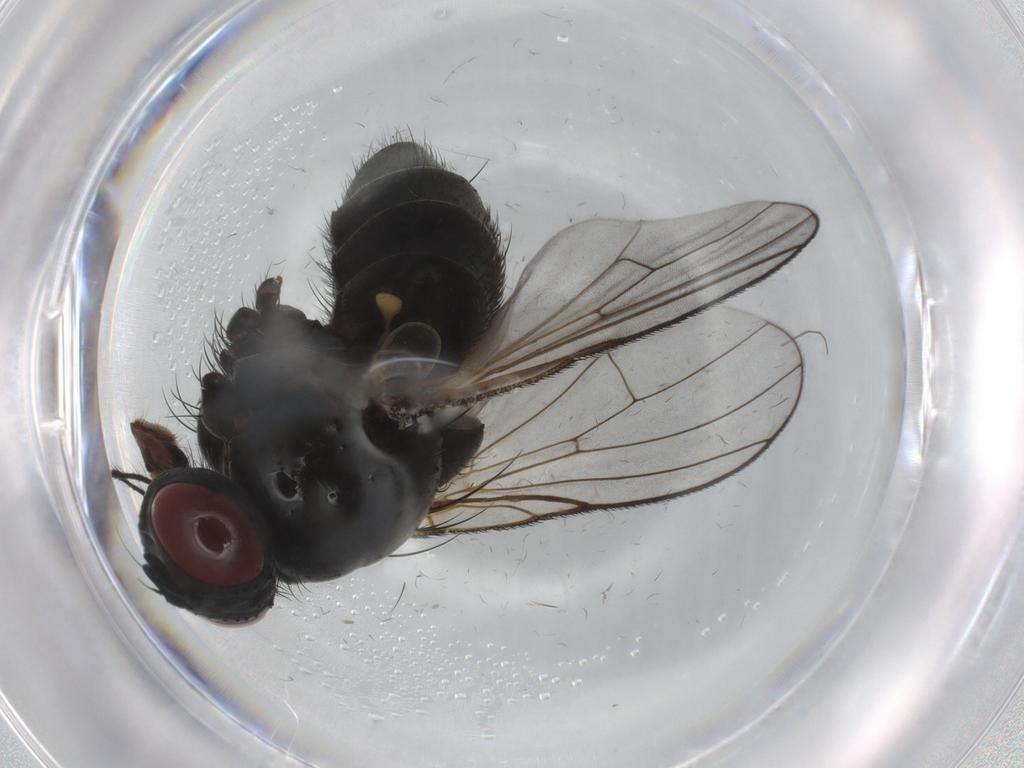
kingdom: Animalia
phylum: Arthropoda
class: Insecta
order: Diptera
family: Muscidae
